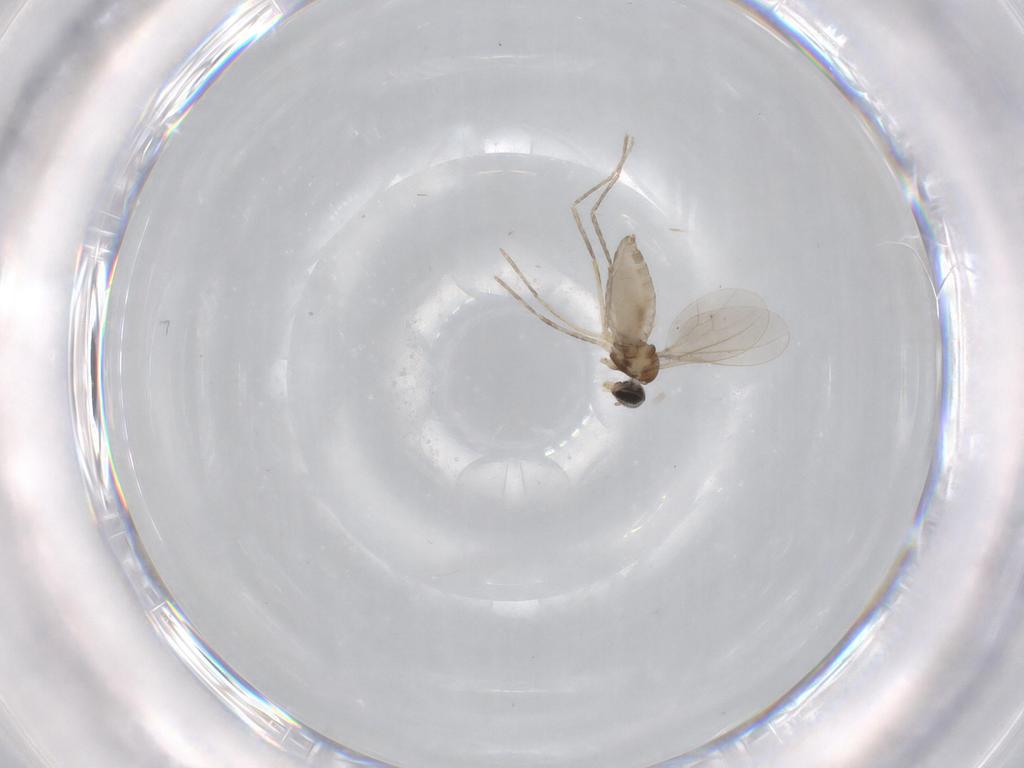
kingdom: Animalia
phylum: Arthropoda
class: Insecta
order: Diptera
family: Cecidomyiidae
